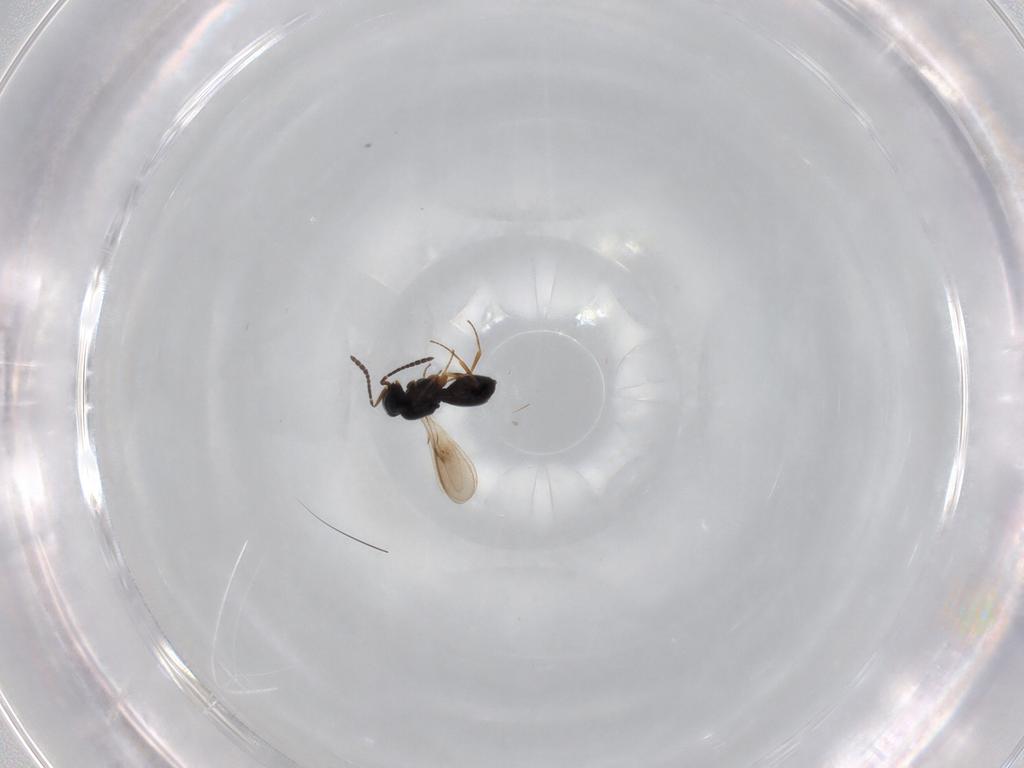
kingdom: Animalia
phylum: Arthropoda
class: Insecta
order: Hymenoptera
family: Scelionidae
